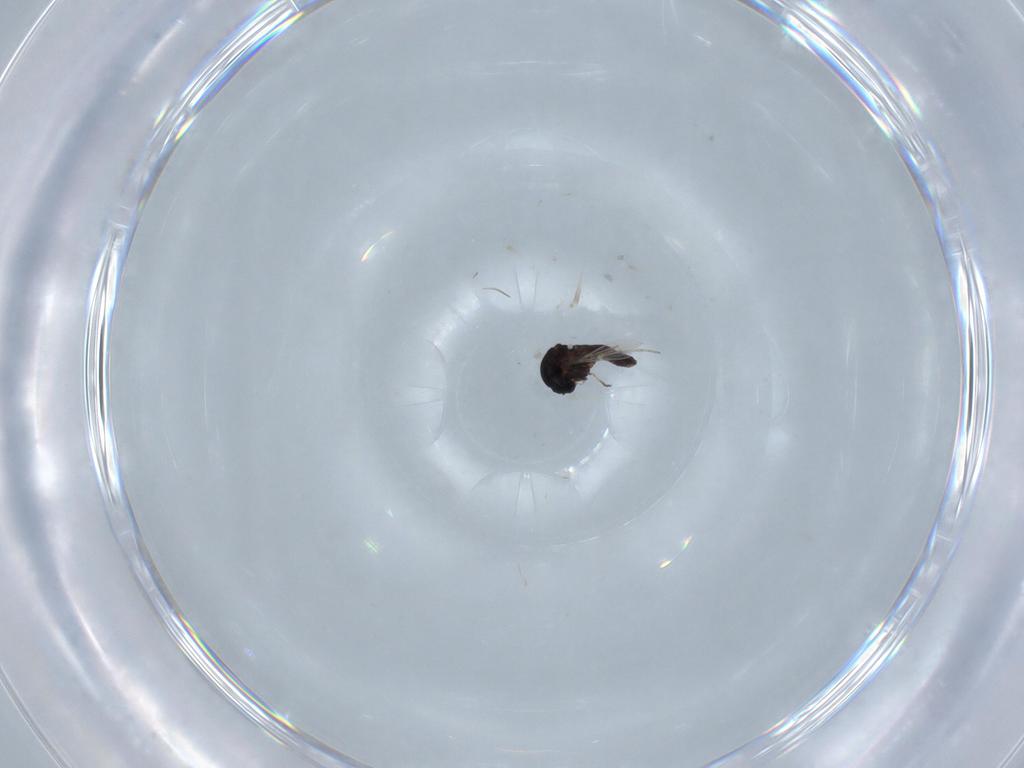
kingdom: Animalia
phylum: Arthropoda
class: Insecta
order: Diptera
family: Ceratopogonidae
